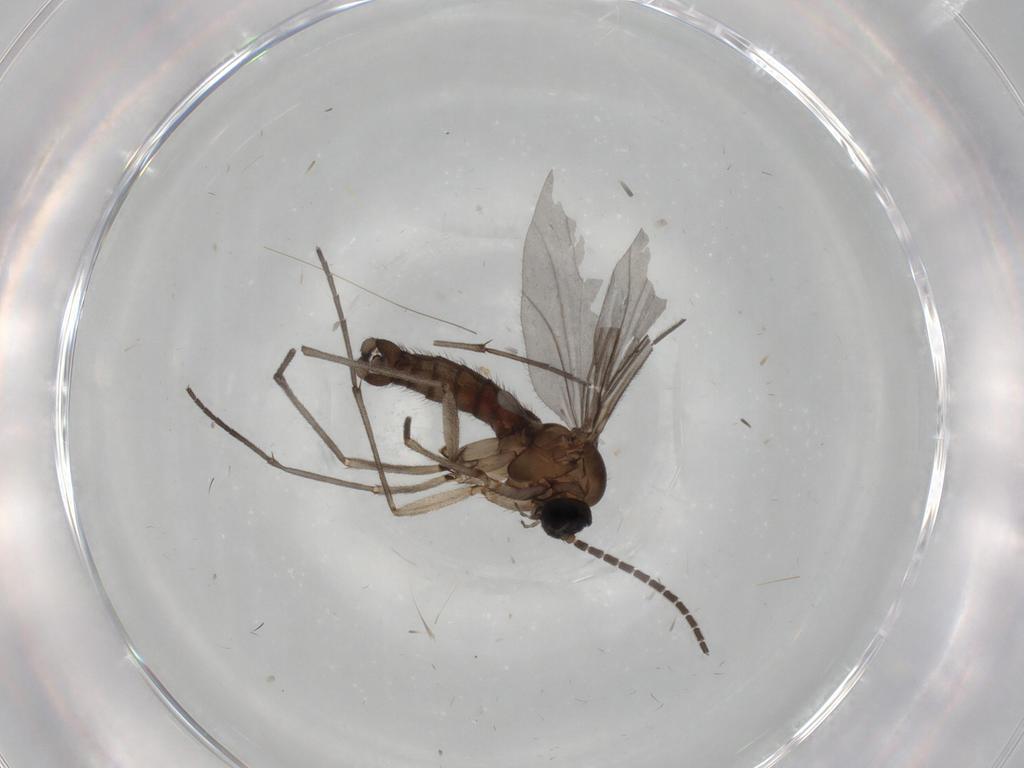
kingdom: Animalia
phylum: Arthropoda
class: Insecta
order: Diptera
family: Sciaridae
